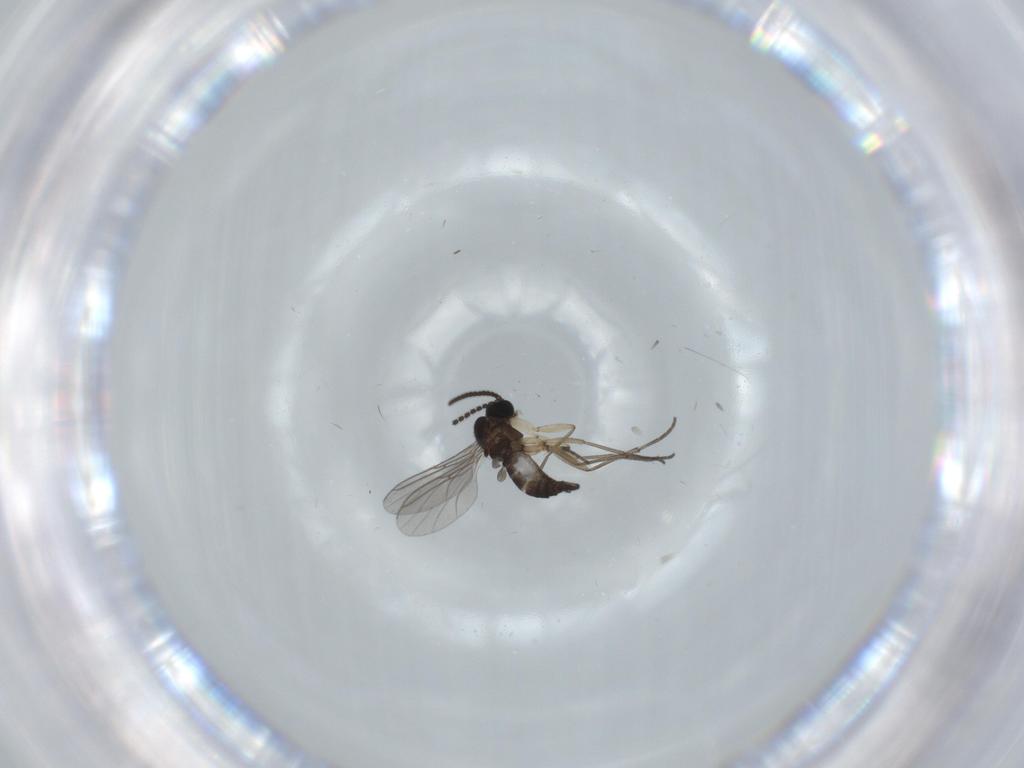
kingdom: Animalia
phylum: Arthropoda
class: Insecta
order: Diptera
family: Sciaridae
